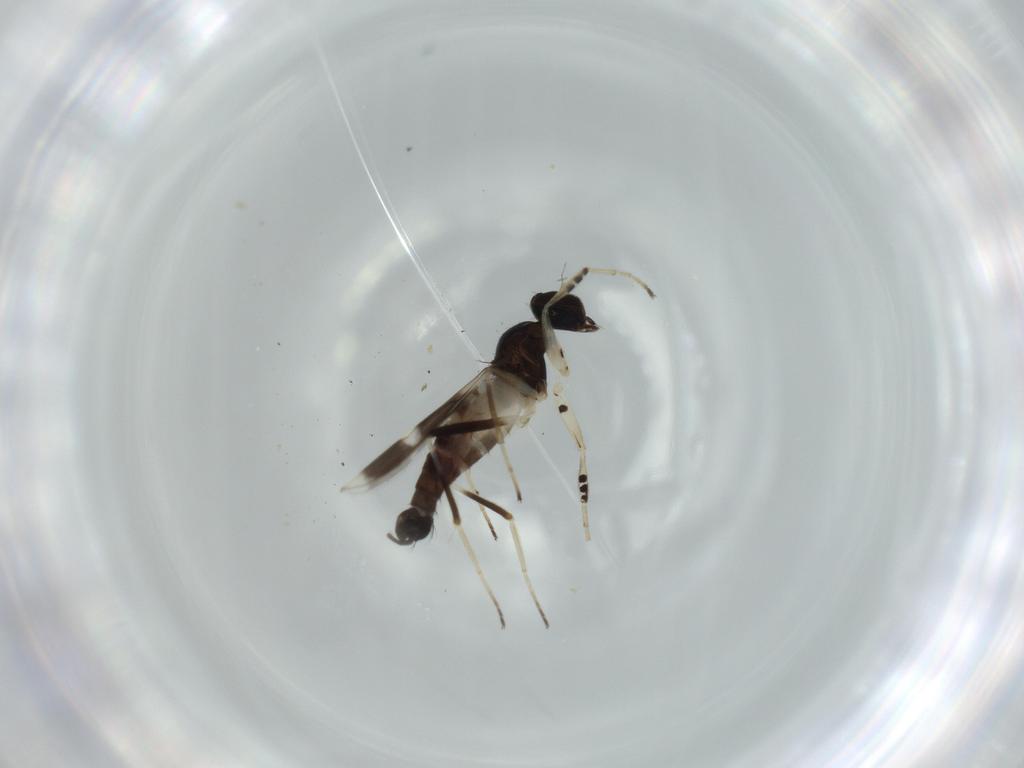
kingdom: Animalia
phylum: Arthropoda
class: Insecta
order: Diptera
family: Hybotidae
